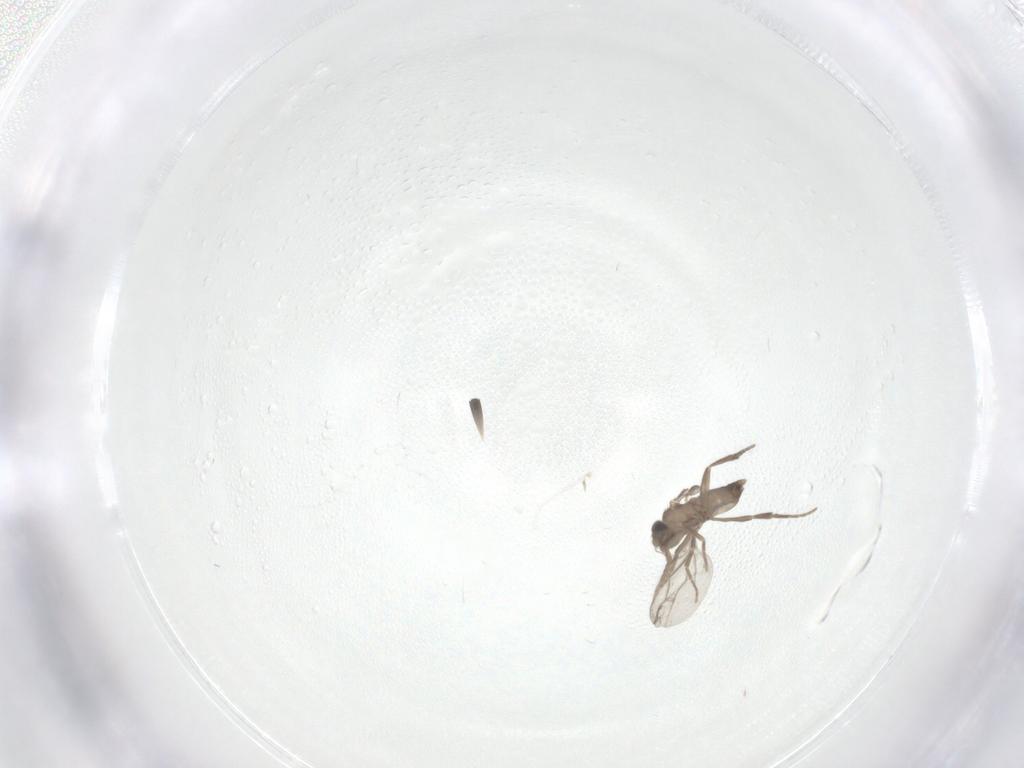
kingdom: Animalia
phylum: Arthropoda
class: Insecta
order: Diptera
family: Phoridae
